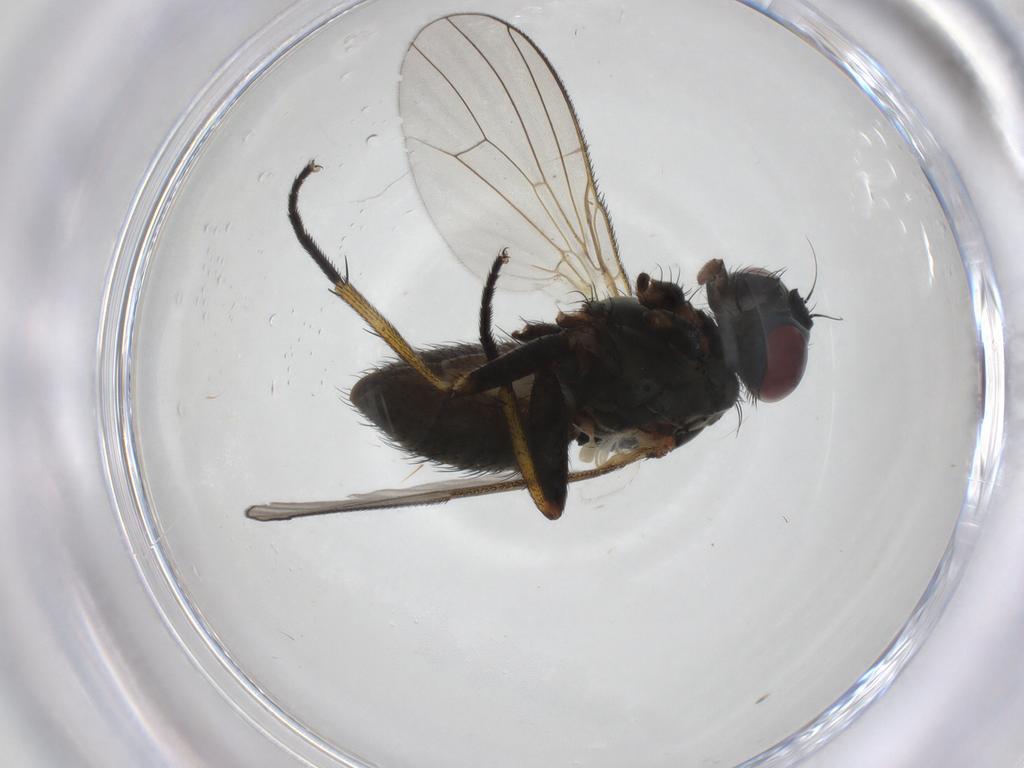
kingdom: Animalia
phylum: Arthropoda
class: Insecta
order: Diptera
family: Muscidae
